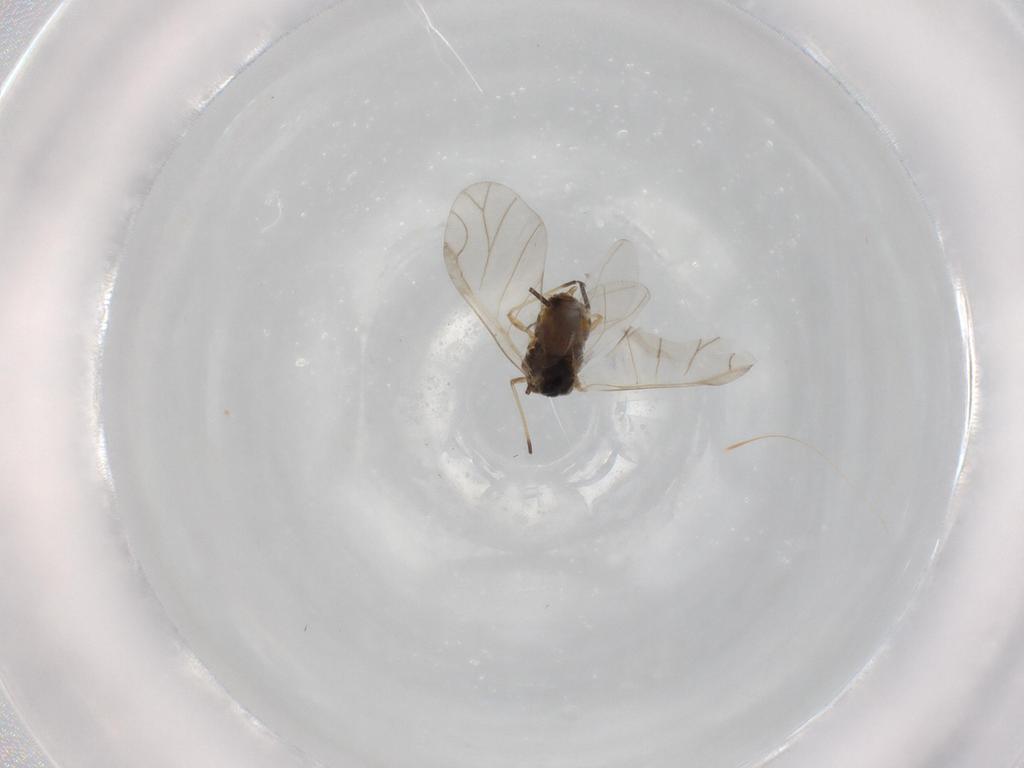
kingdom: Animalia
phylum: Arthropoda
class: Insecta
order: Hemiptera
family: Aphididae
